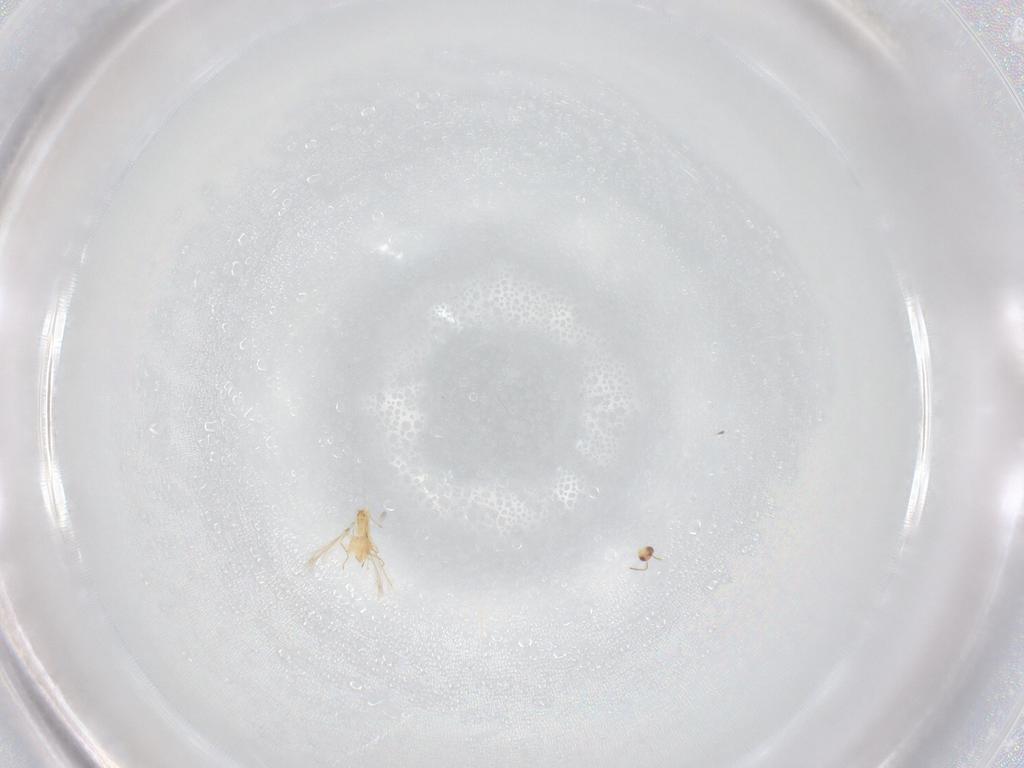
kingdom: Animalia
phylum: Arthropoda
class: Insecta
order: Hymenoptera
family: Mymaridae
